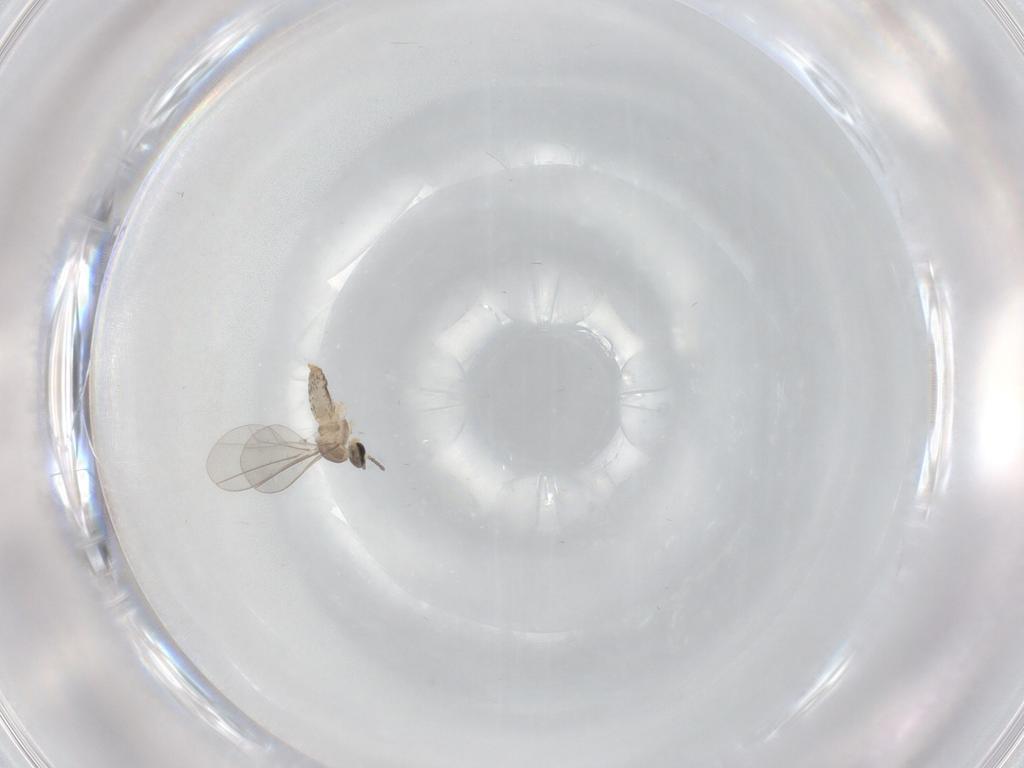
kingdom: Animalia
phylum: Arthropoda
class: Insecta
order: Diptera
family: Cecidomyiidae
